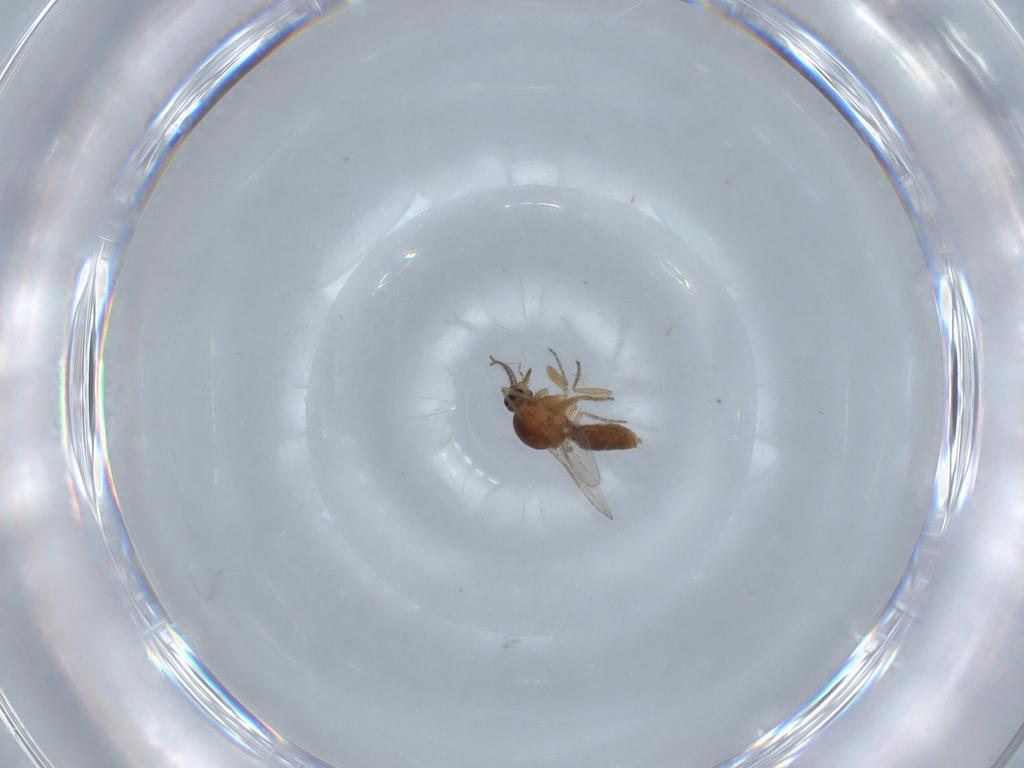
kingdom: Animalia
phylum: Arthropoda
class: Insecta
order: Diptera
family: Ceratopogonidae
